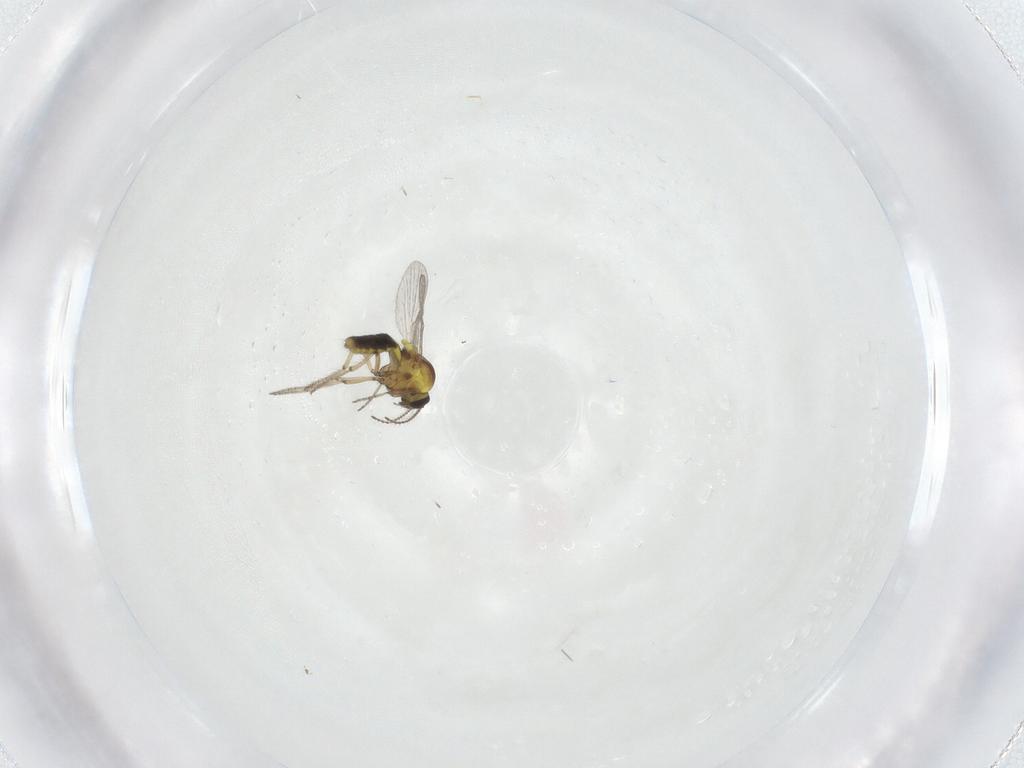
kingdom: Animalia
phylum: Arthropoda
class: Insecta
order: Diptera
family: Ceratopogonidae
